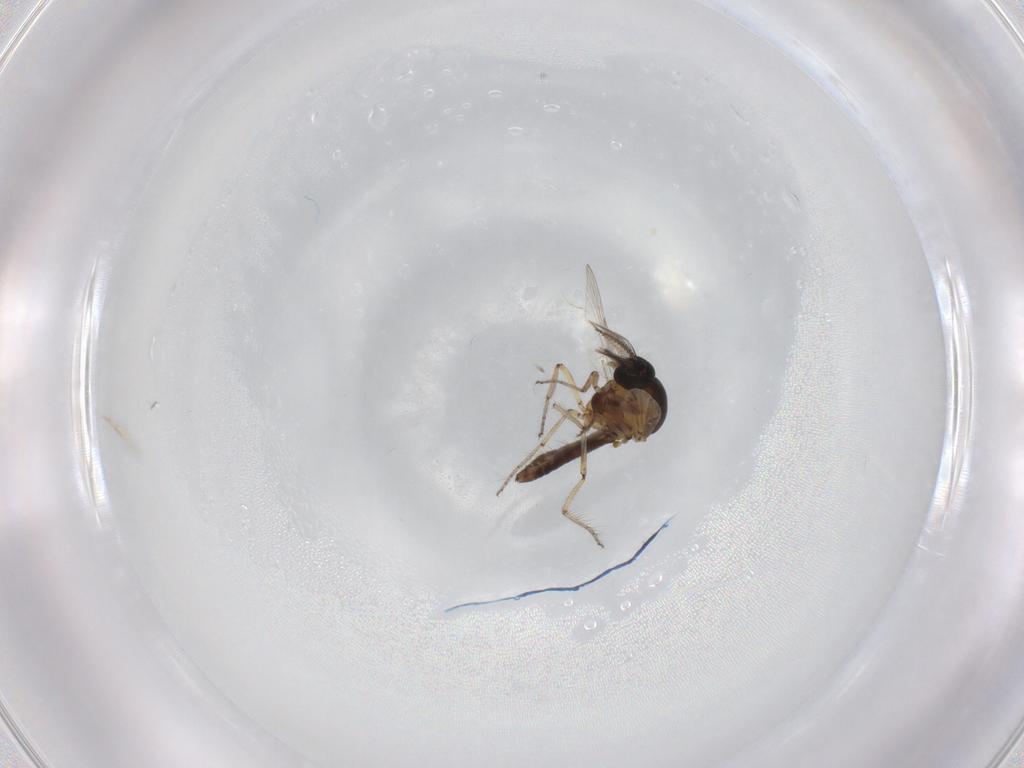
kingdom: Animalia
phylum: Arthropoda
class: Insecta
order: Diptera
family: Ceratopogonidae
